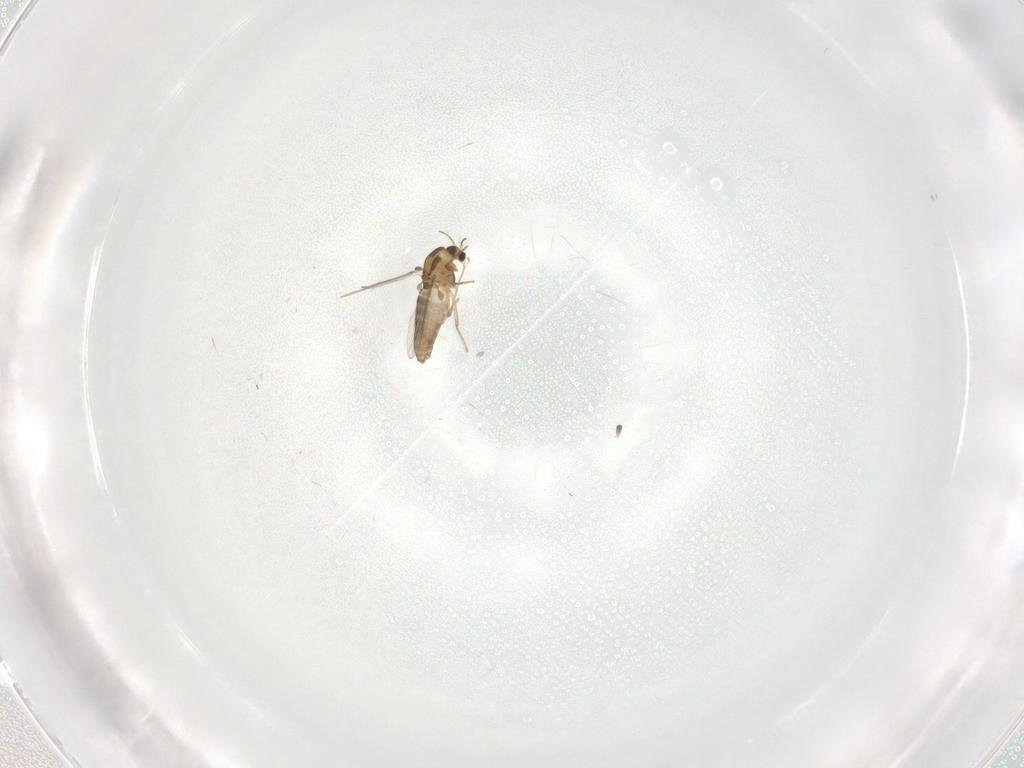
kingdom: Animalia
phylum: Arthropoda
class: Insecta
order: Diptera
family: Chironomidae
